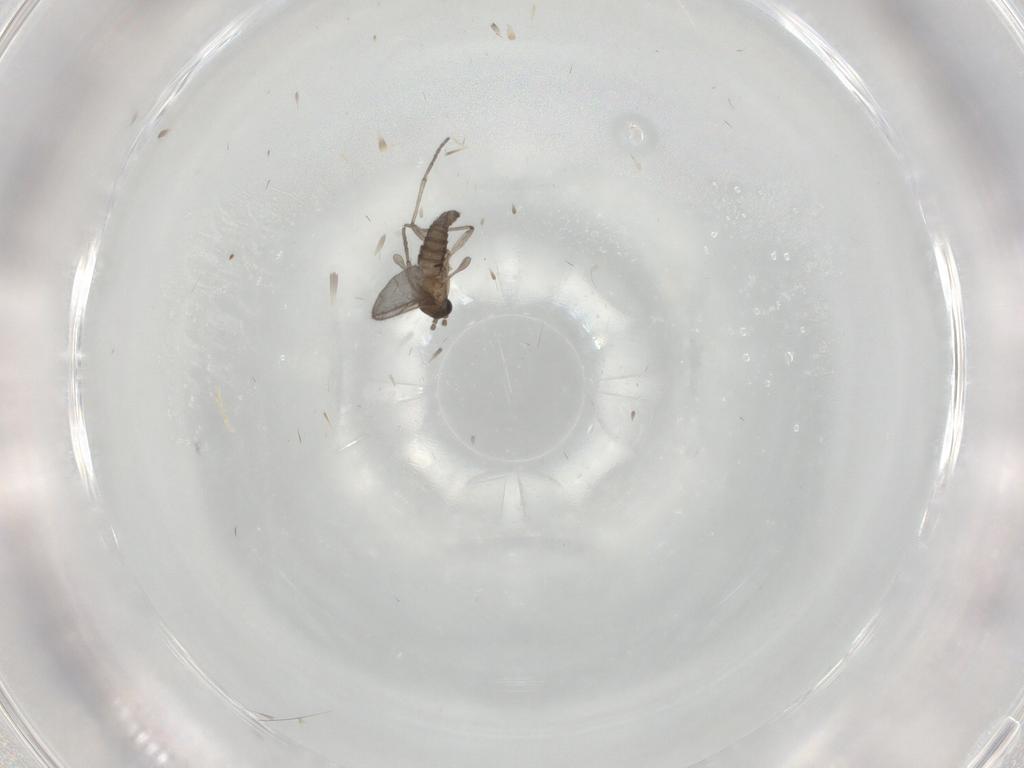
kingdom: Animalia
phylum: Arthropoda
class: Insecta
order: Diptera
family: Sciaridae
